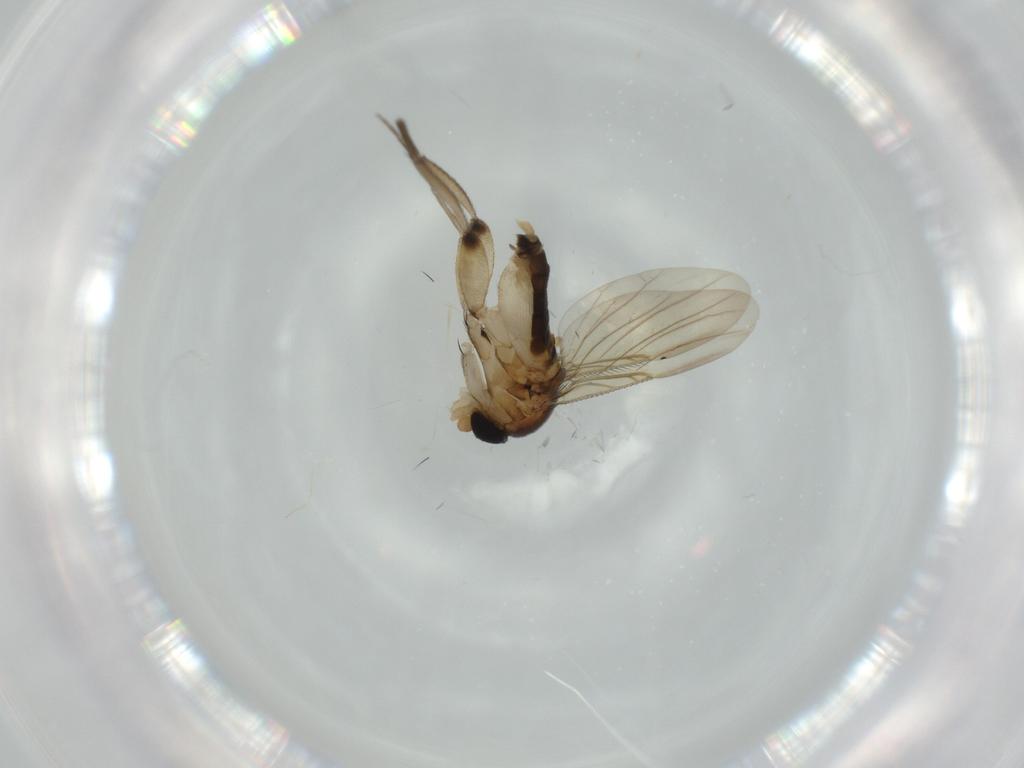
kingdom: Animalia
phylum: Arthropoda
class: Insecta
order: Diptera
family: Phoridae
